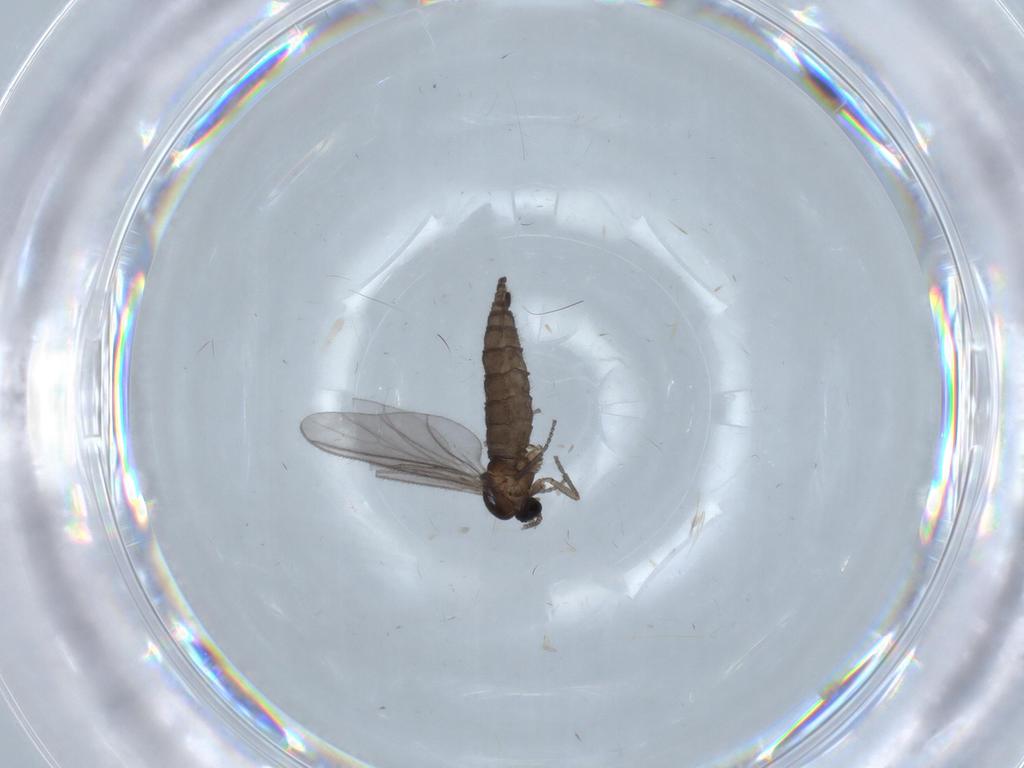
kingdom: Animalia
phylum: Arthropoda
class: Insecta
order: Diptera
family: Sciaridae
